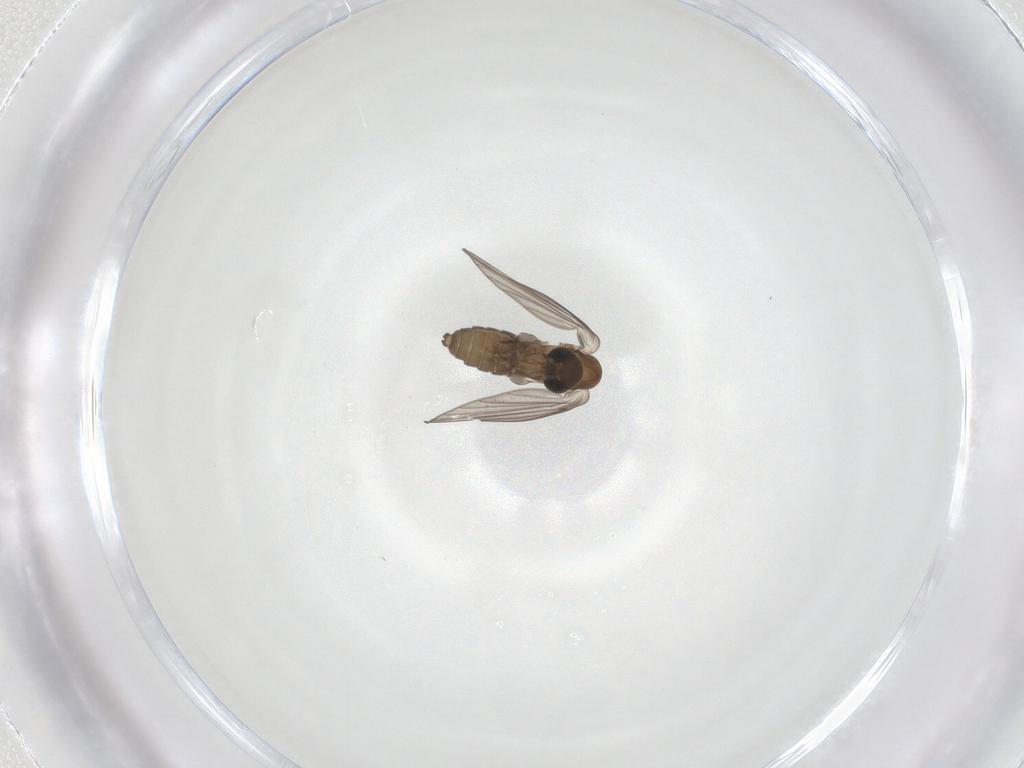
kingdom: Animalia
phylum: Arthropoda
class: Insecta
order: Diptera
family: Psychodidae
